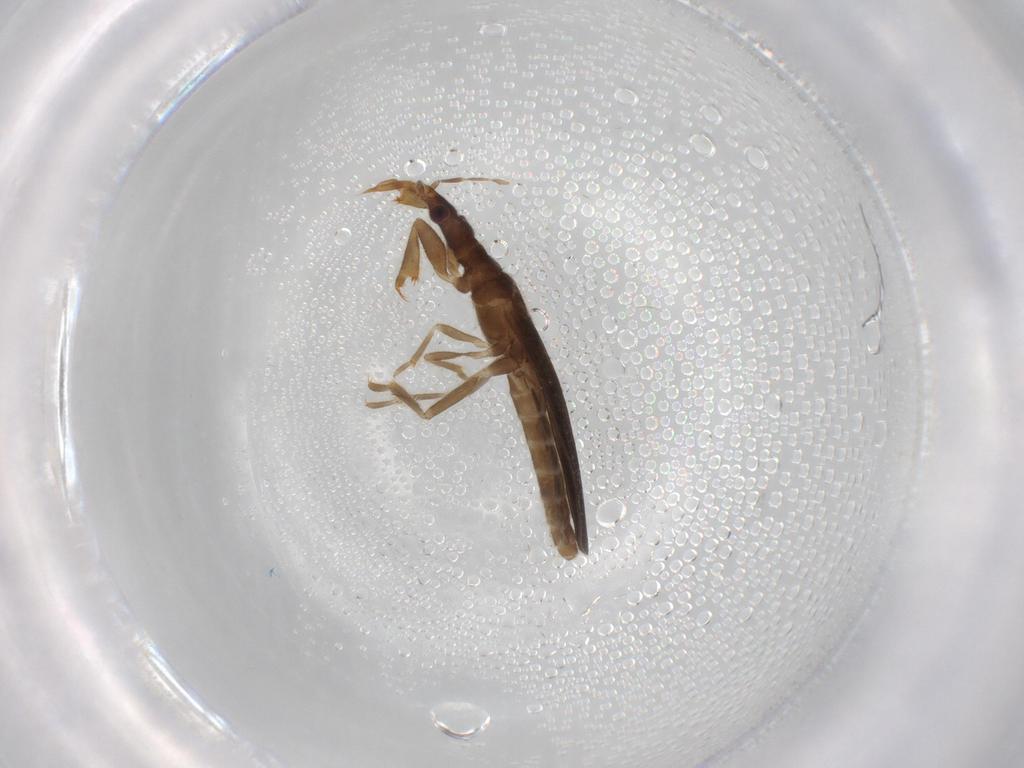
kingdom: Animalia
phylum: Arthropoda
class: Insecta
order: Hemiptera
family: Enicocephalidae
